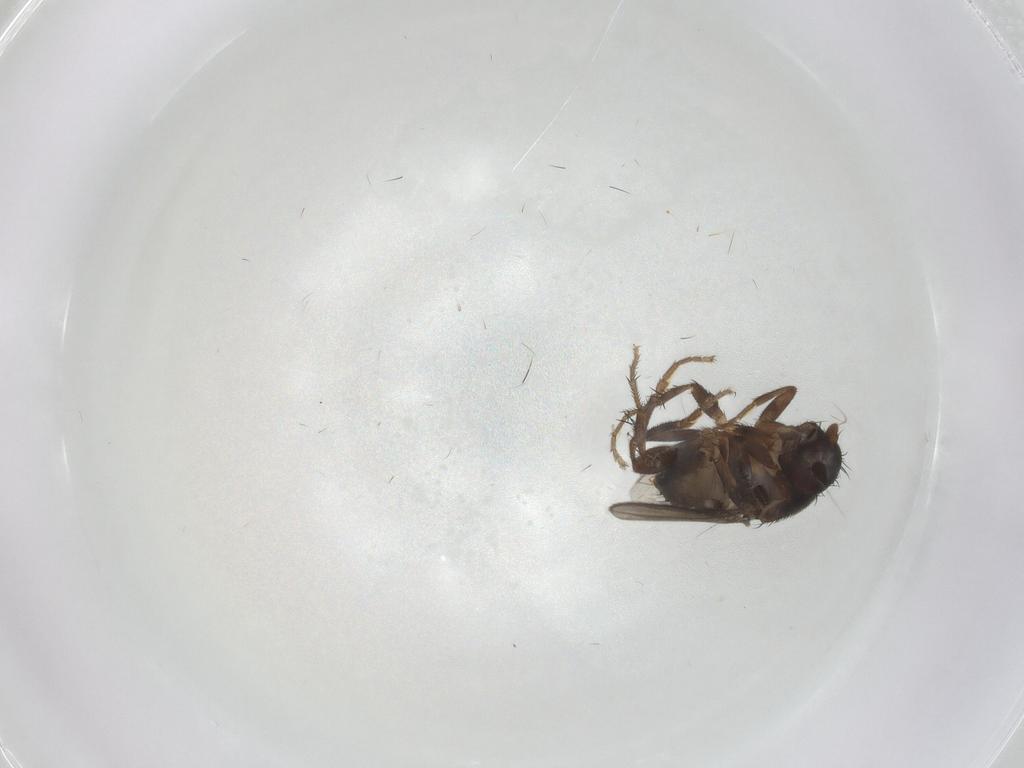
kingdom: Animalia
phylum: Arthropoda
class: Insecta
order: Diptera
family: Sphaeroceridae
